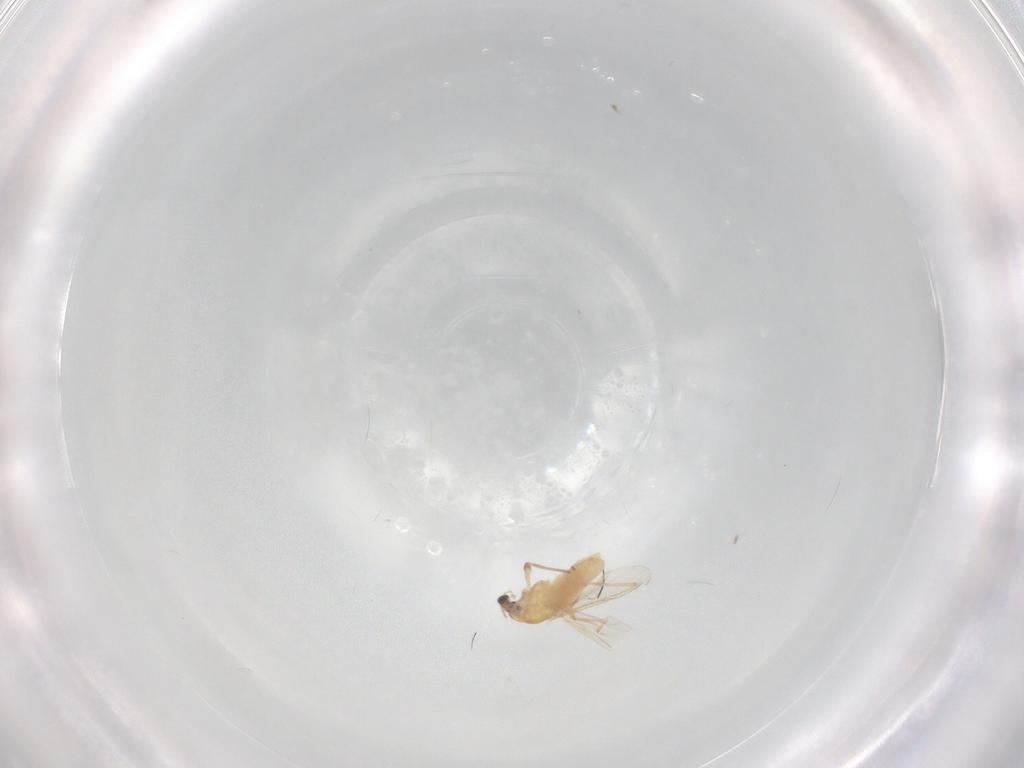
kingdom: Animalia
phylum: Arthropoda
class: Insecta
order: Diptera
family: Chironomidae
